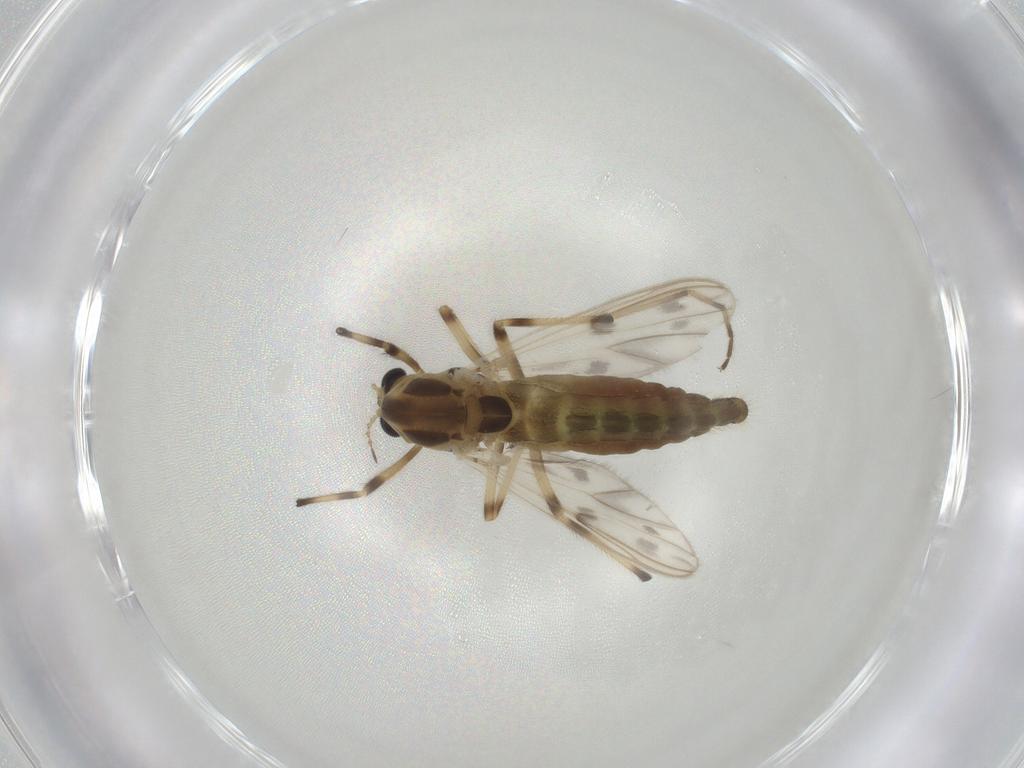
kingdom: Animalia
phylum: Arthropoda
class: Insecta
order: Diptera
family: Chironomidae
